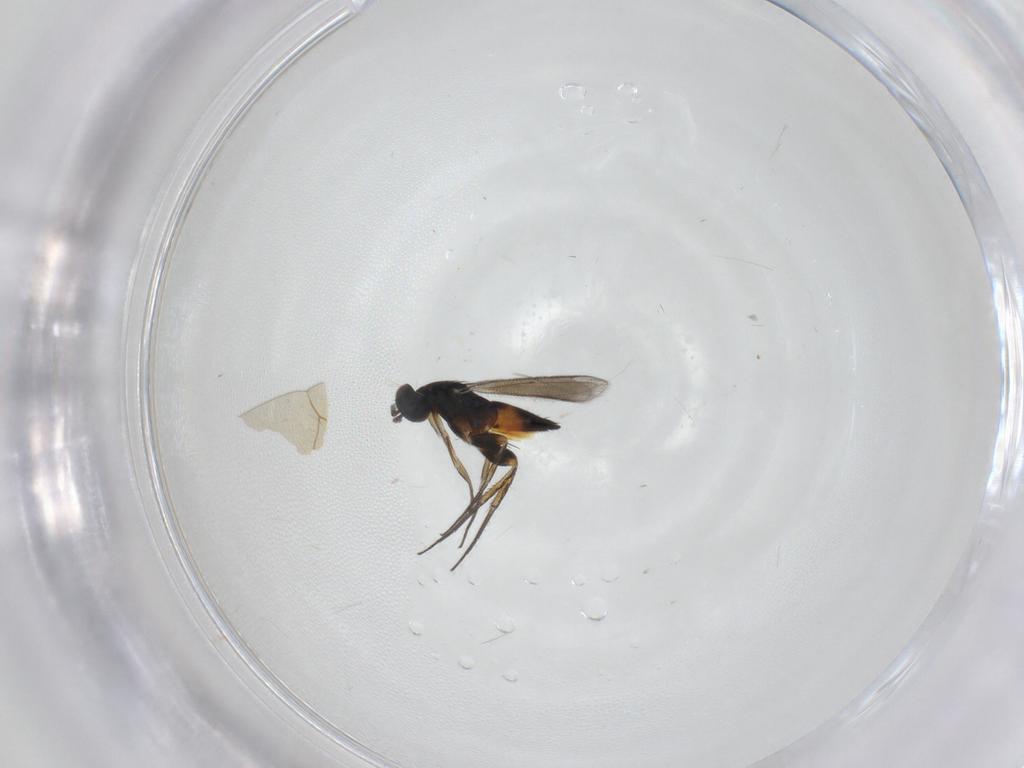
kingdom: Animalia
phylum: Arthropoda
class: Insecta
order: Hymenoptera
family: Eulophidae
